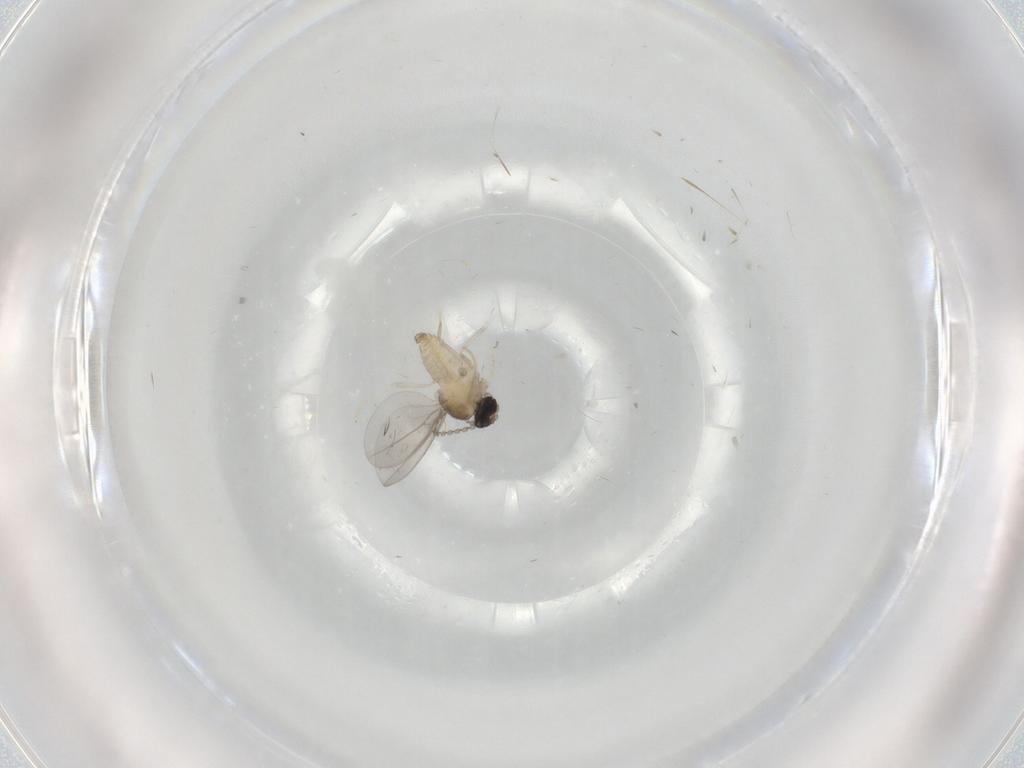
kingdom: Animalia
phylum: Arthropoda
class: Insecta
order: Diptera
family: Cecidomyiidae
